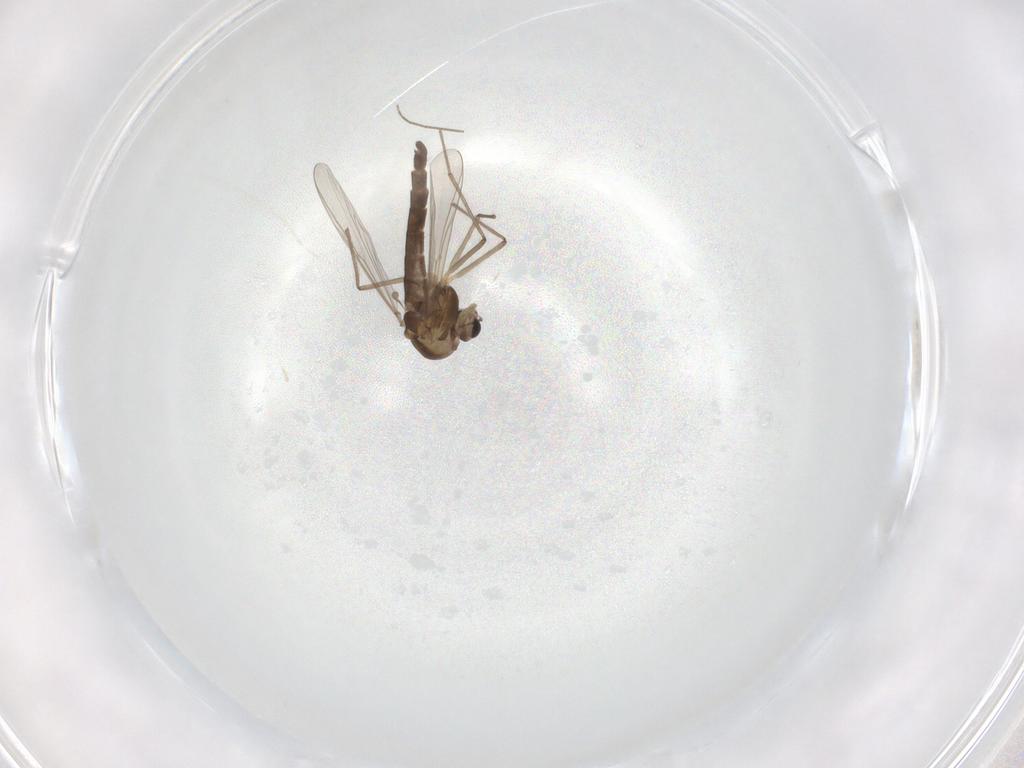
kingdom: Animalia
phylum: Arthropoda
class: Insecta
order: Diptera
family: Chironomidae
